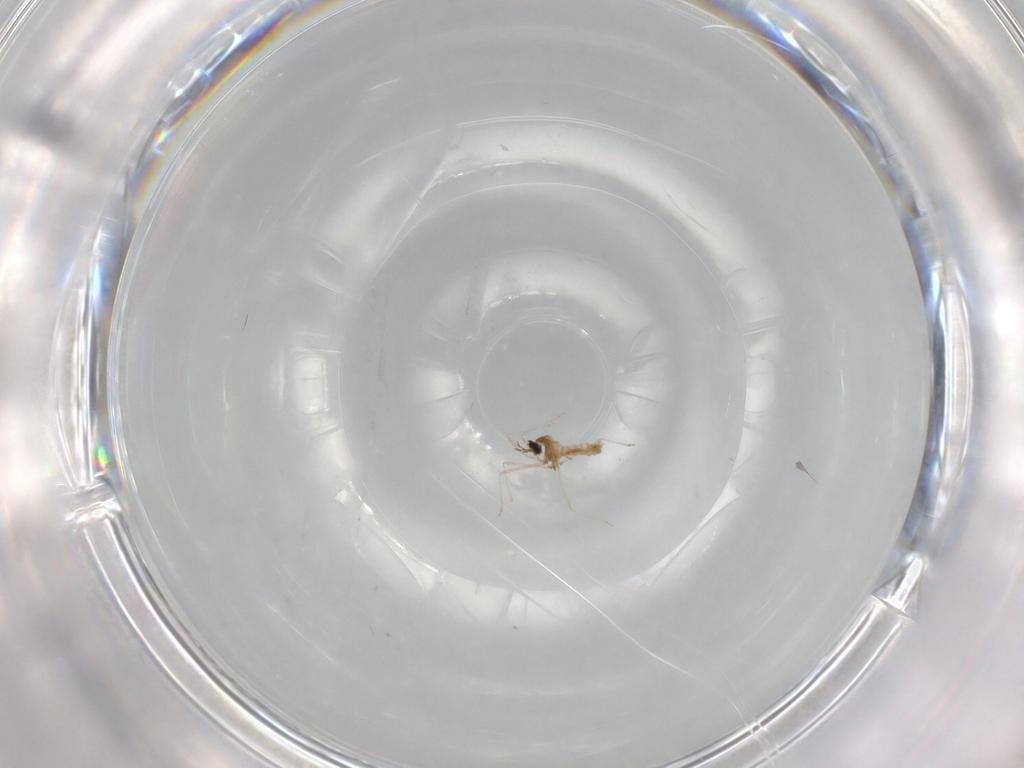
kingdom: Animalia
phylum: Arthropoda
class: Insecta
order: Diptera
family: Cecidomyiidae
